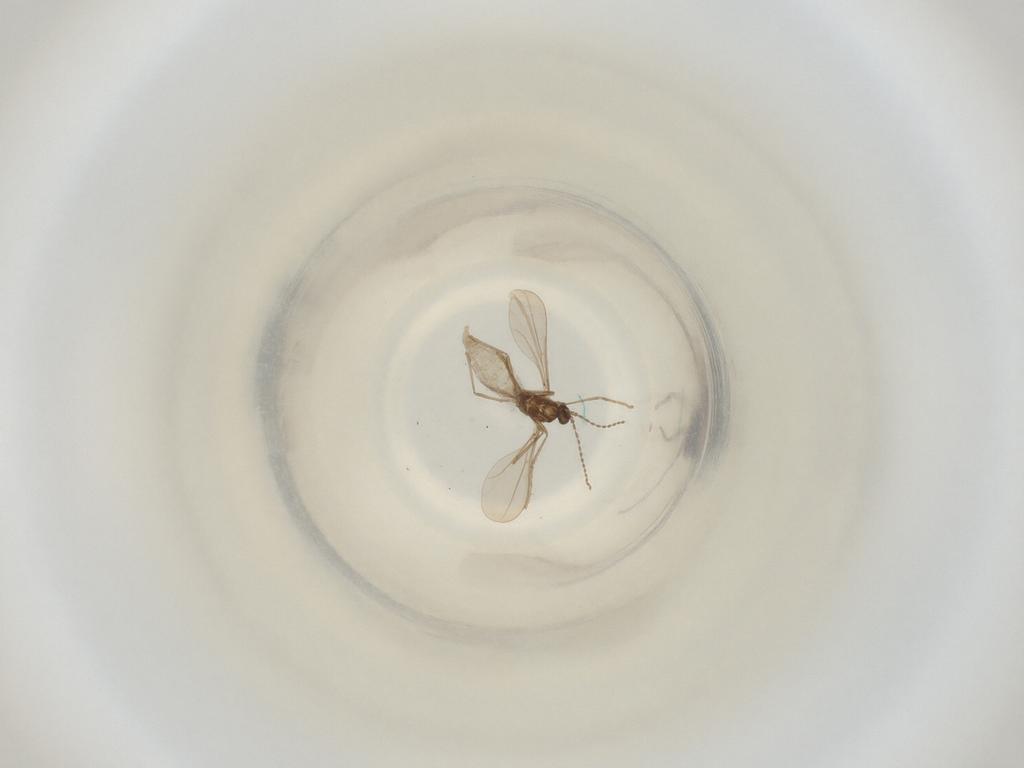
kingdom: Animalia
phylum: Arthropoda
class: Insecta
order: Diptera
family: Cecidomyiidae
